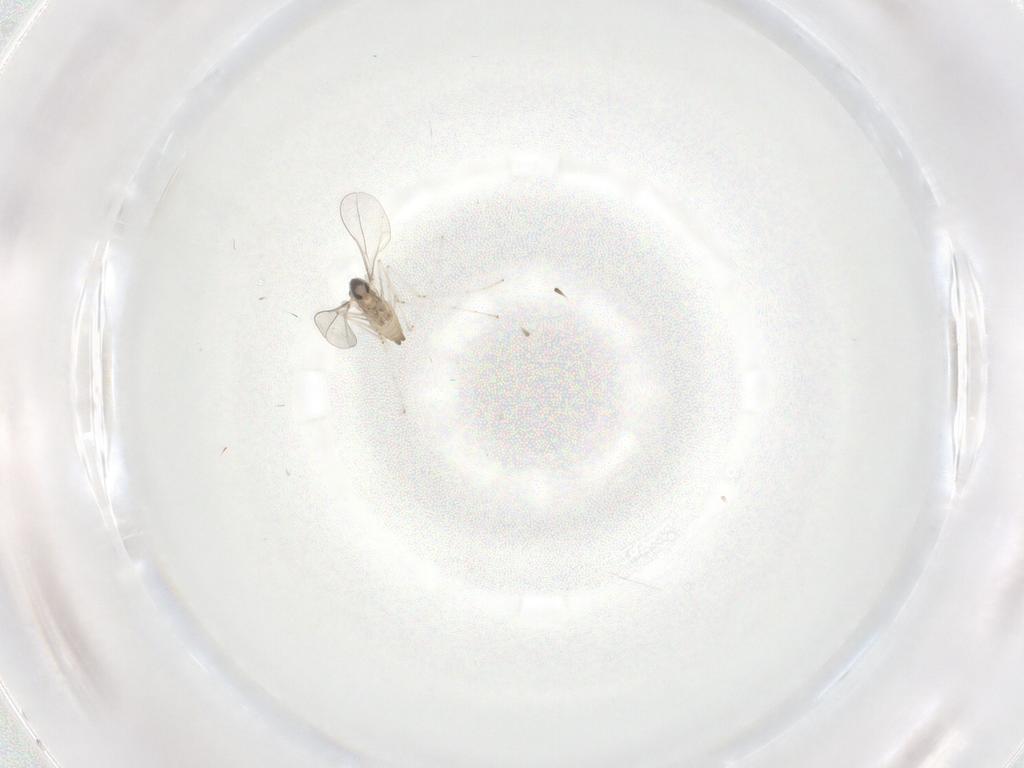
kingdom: Animalia
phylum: Arthropoda
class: Insecta
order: Diptera
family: Cecidomyiidae
